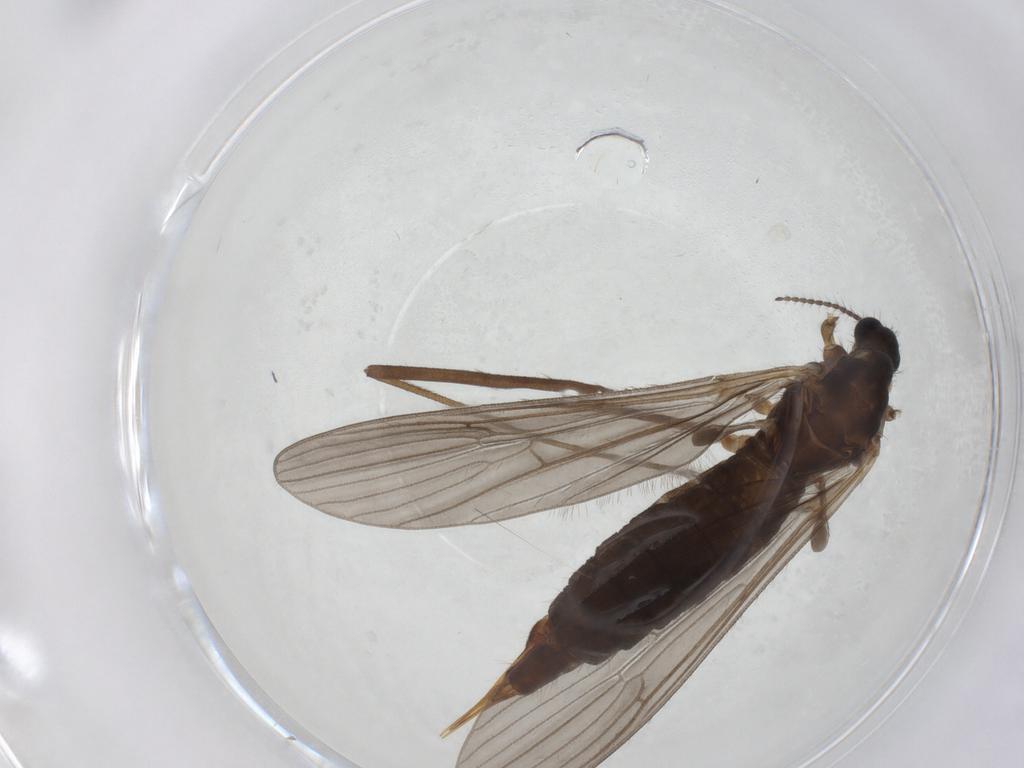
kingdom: Animalia
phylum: Arthropoda
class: Insecta
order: Diptera
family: Limoniidae
